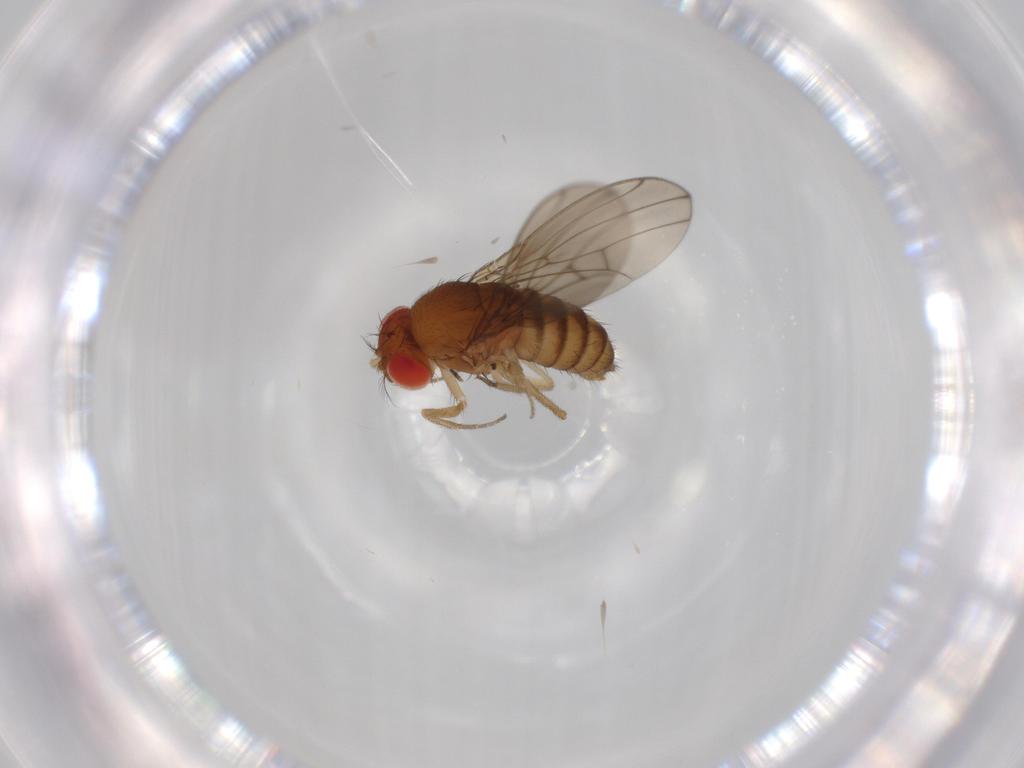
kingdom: Animalia
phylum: Arthropoda
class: Insecta
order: Diptera
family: Drosophilidae
